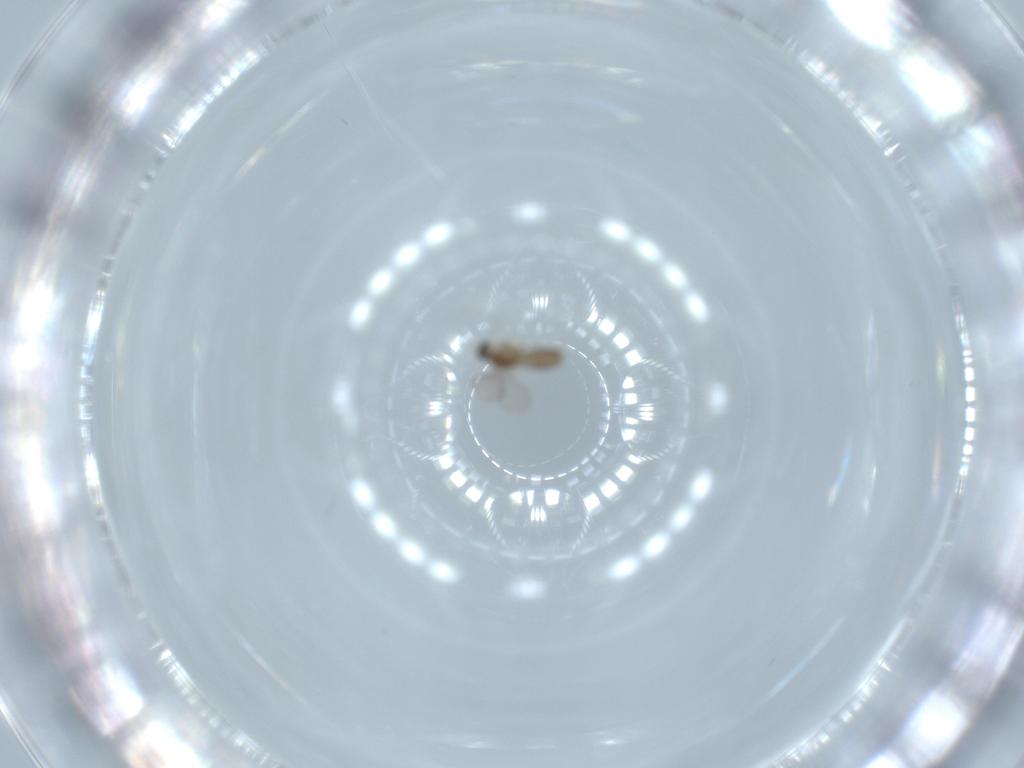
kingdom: Animalia
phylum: Arthropoda
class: Insecta
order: Diptera
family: Cecidomyiidae
